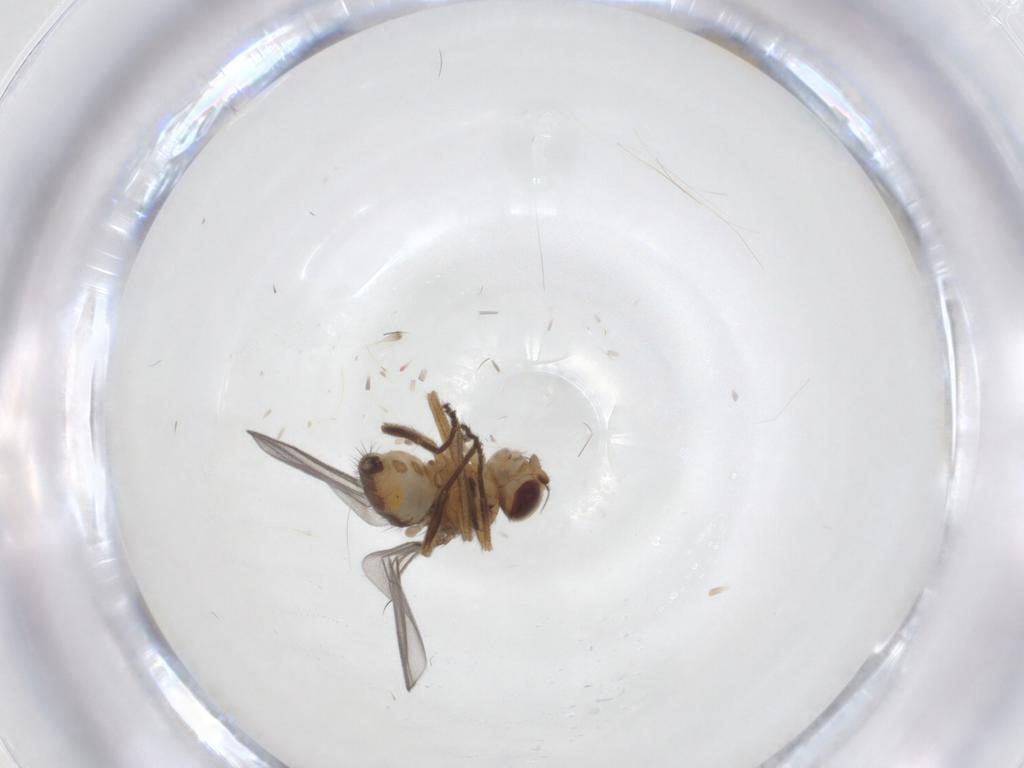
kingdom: Animalia
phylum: Arthropoda
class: Insecta
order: Diptera
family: Chloropidae
